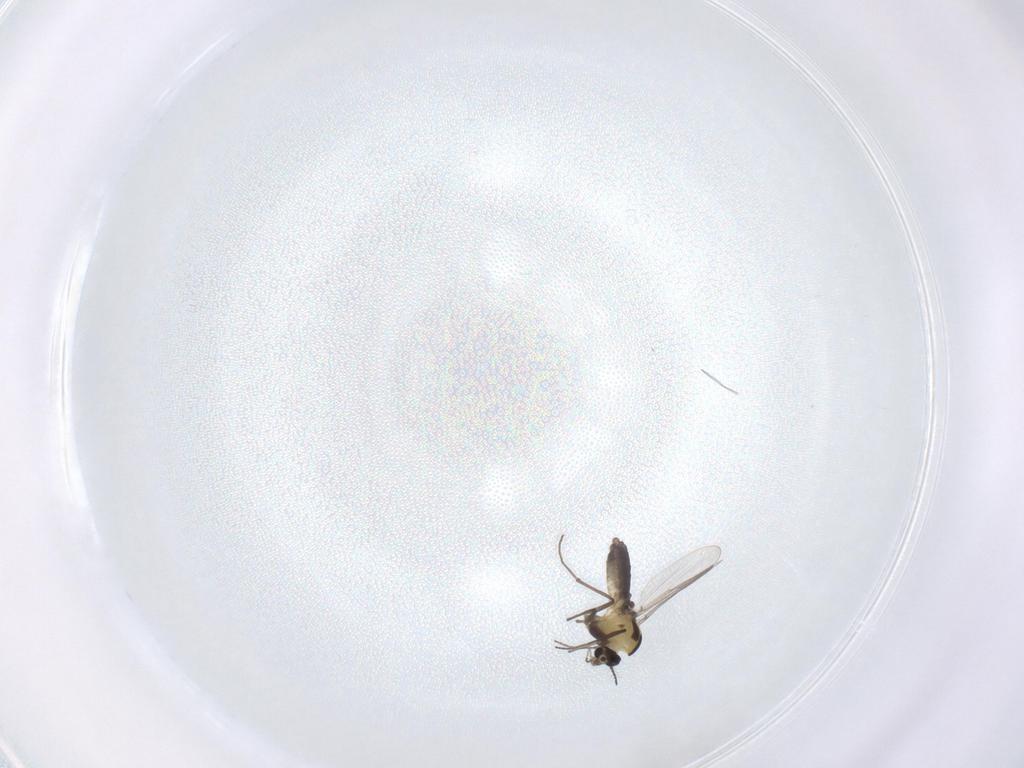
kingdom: Animalia
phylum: Arthropoda
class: Insecta
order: Diptera
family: Chironomidae
